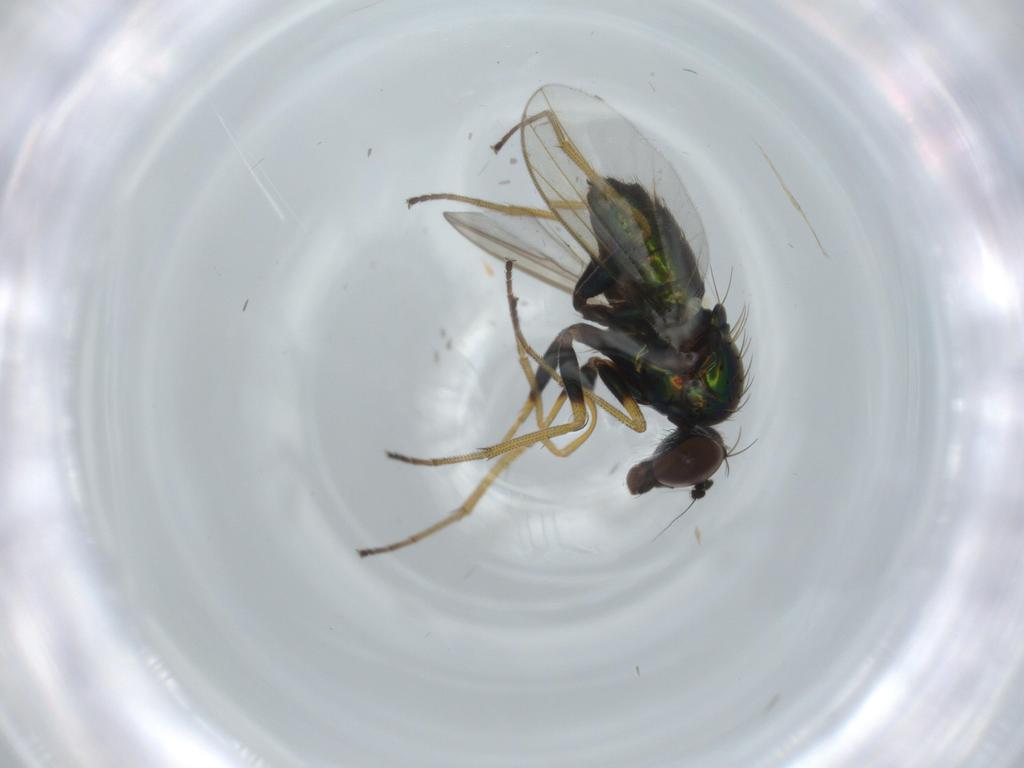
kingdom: Animalia
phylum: Arthropoda
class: Insecta
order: Diptera
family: Dolichopodidae
